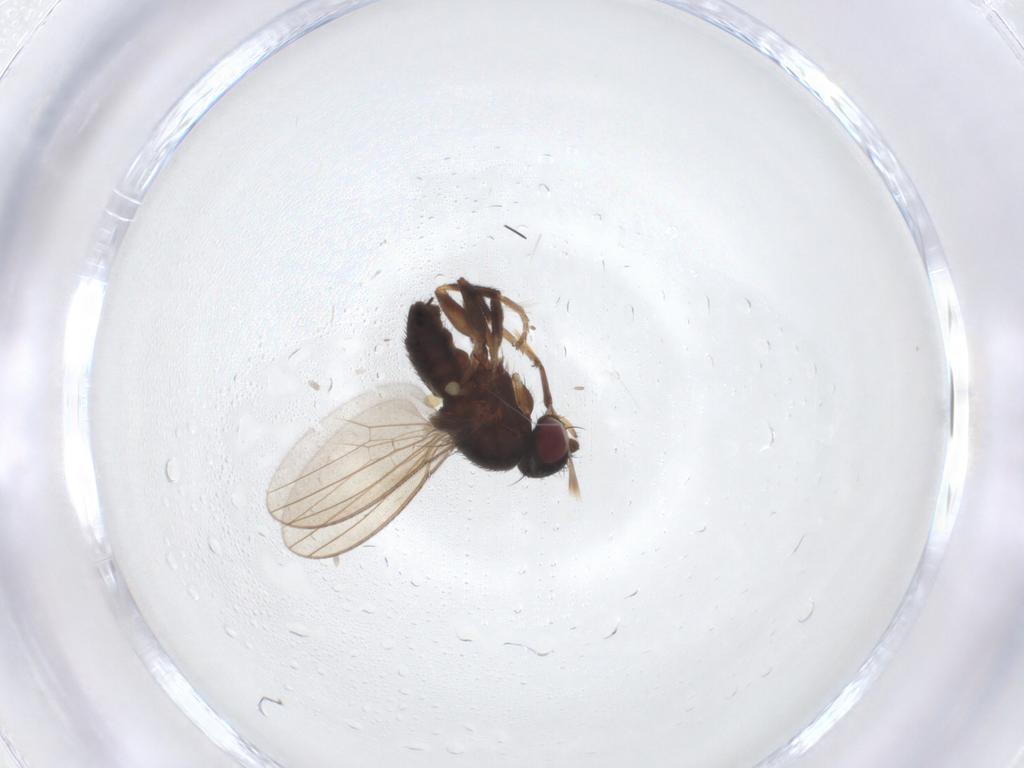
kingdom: Animalia
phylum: Arthropoda
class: Insecta
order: Diptera
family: Milichiidae
